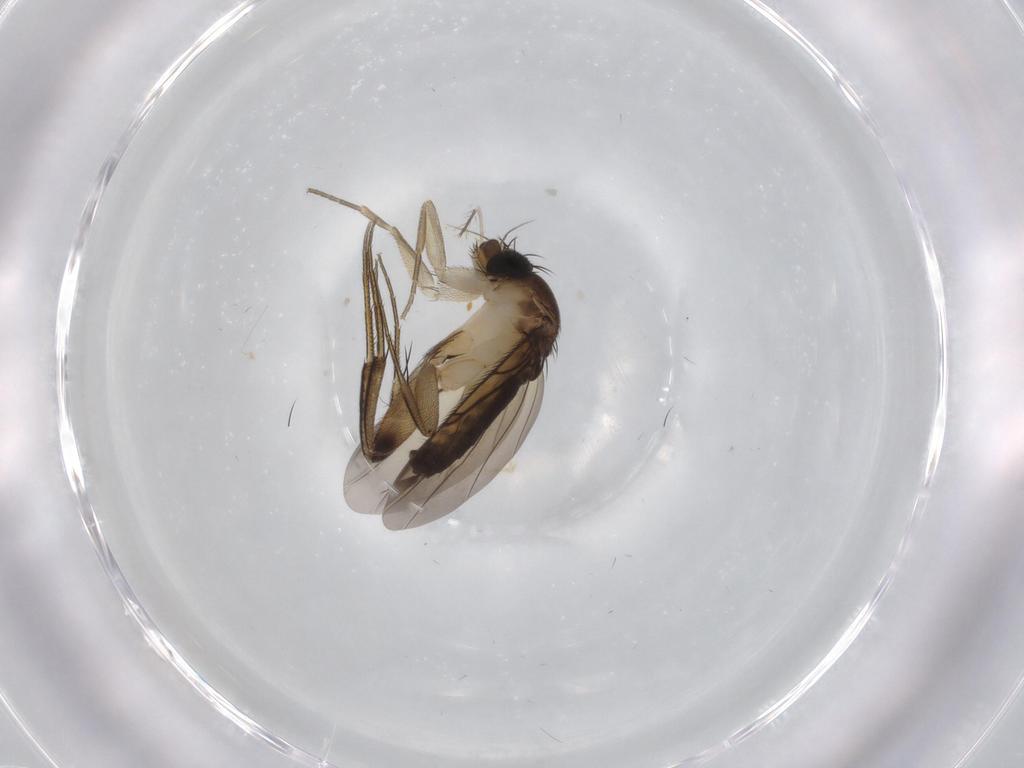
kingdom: Animalia
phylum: Arthropoda
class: Insecta
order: Diptera
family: Phoridae
